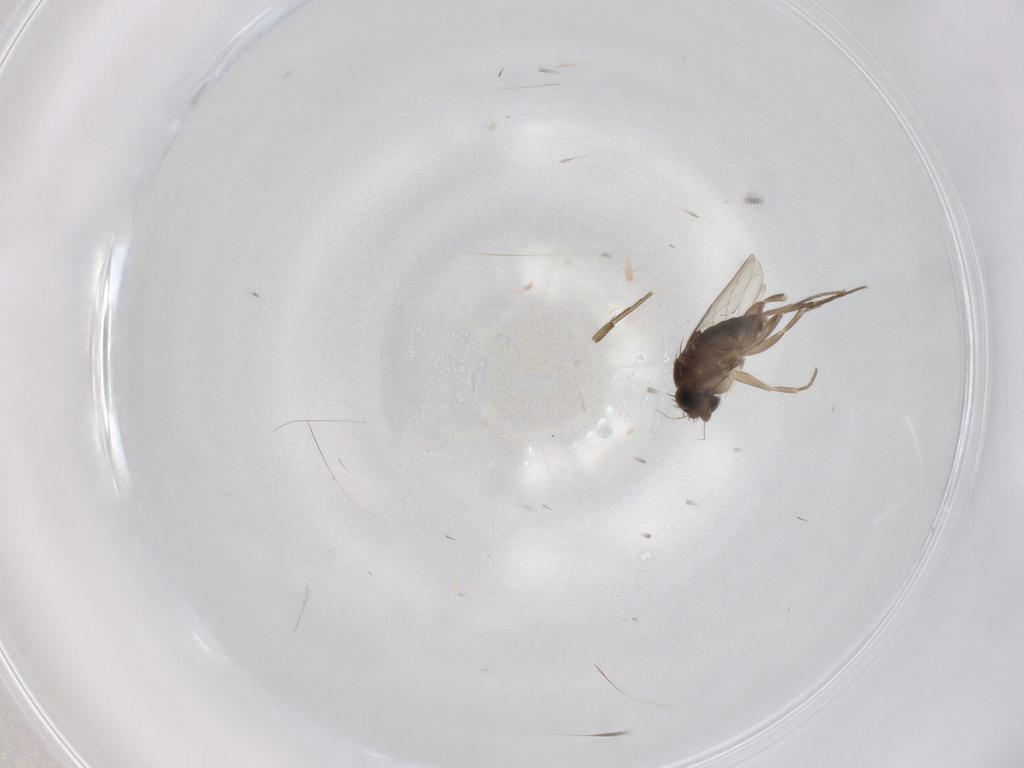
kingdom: Animalia
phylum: Arthropoda
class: Insecta
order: Diptera
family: Phoridae
